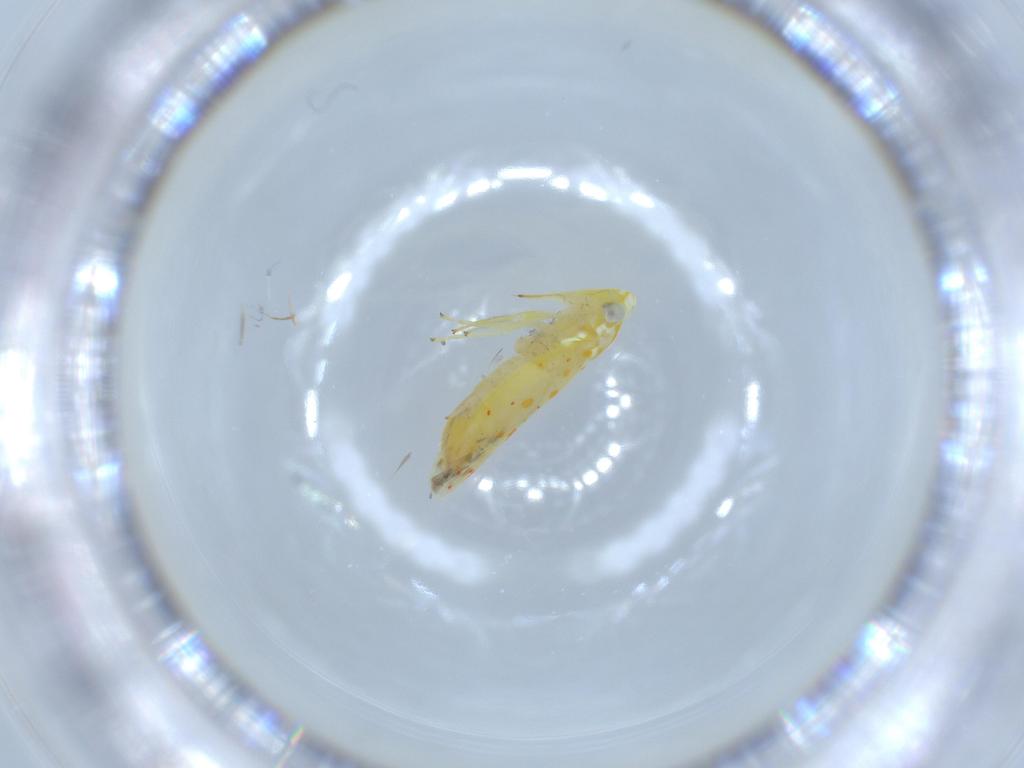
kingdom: Animalia
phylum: Arthropoda
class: Insecta
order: Hemiptera
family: Cicadellidae
